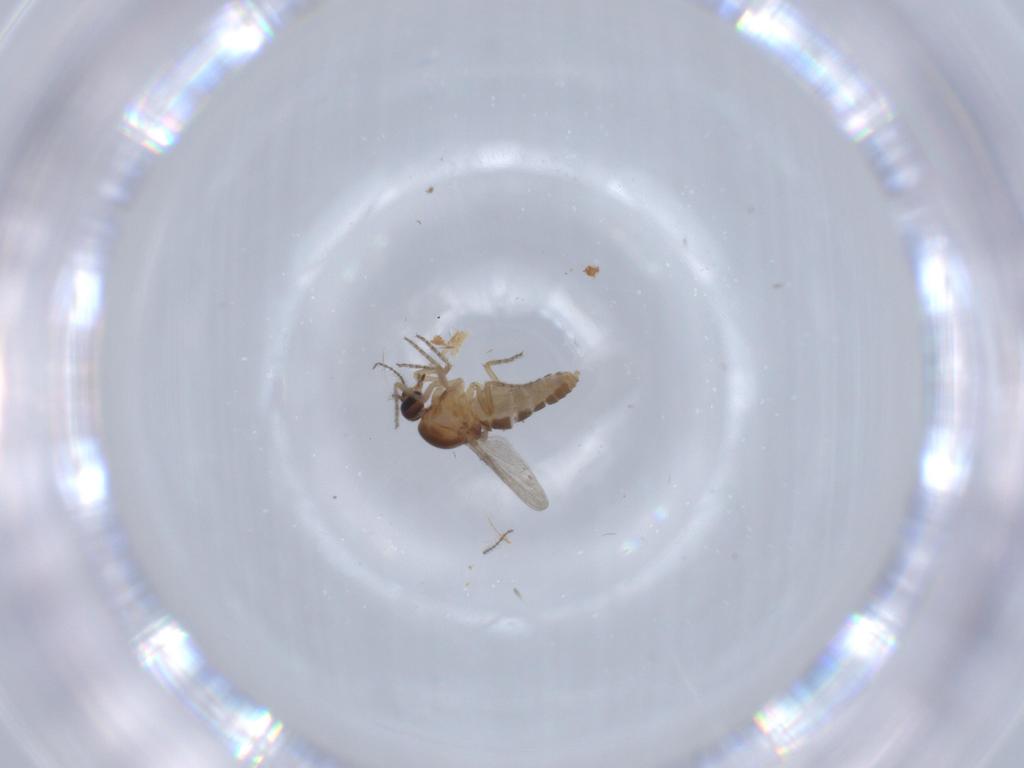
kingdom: Animalia
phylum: Arthropoda
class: Insecta
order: Diptera
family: Ceratopogonidae
